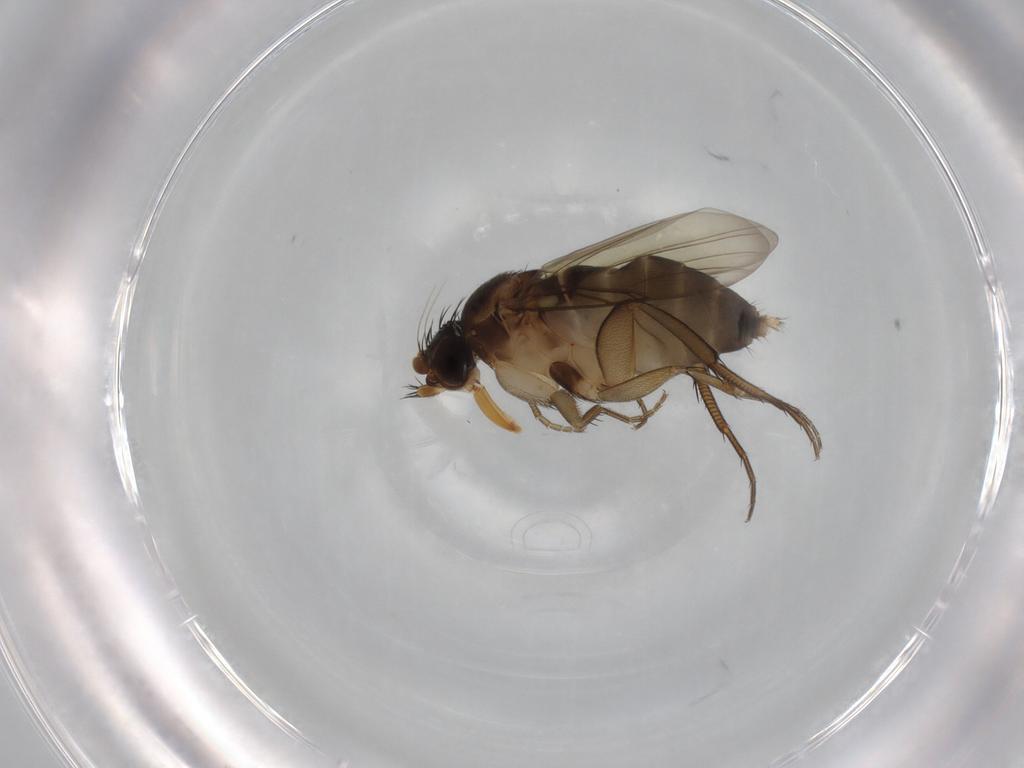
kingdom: Animalia
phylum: Arthropoda
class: Insecta
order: Diptera
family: Phoridae
